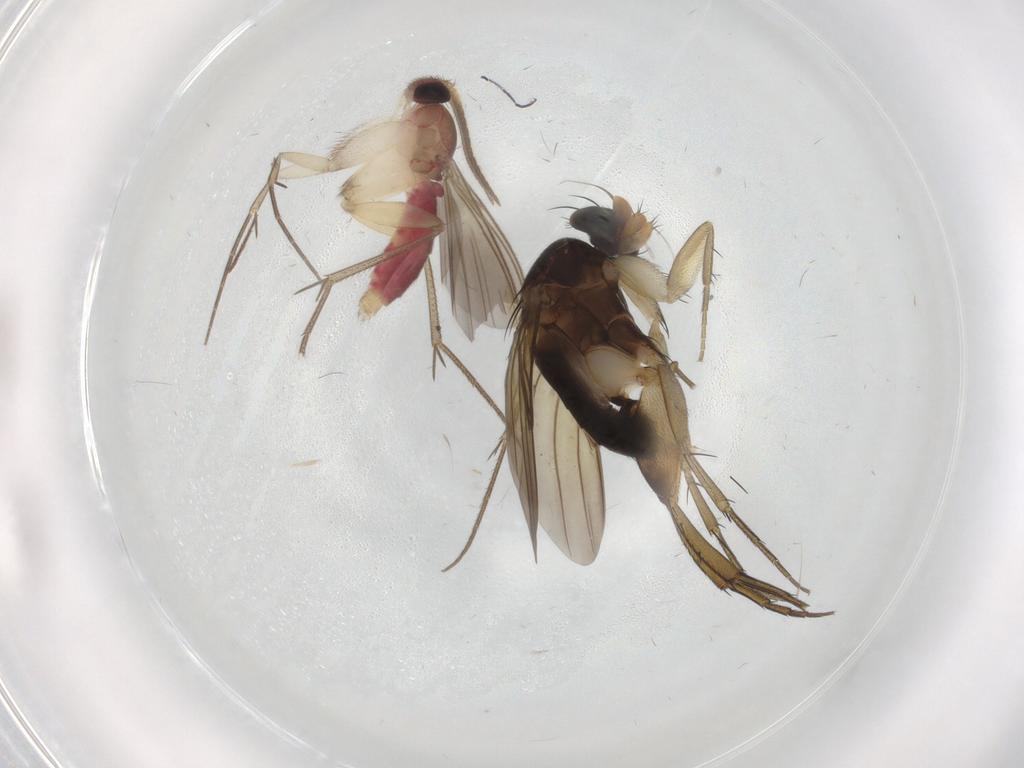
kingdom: Animalia
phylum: Arthropoda
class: Insecta
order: Diptera
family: Mycetophilidae
